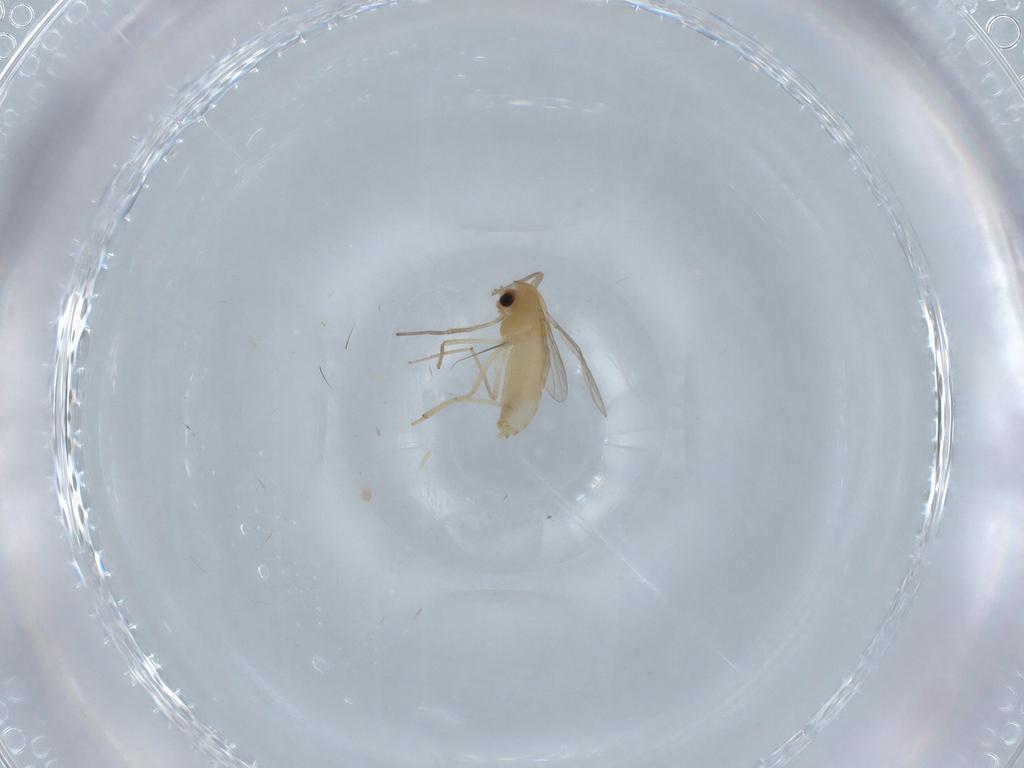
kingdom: Animalia
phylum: Arthropoda
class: Insecta
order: Diptera
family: Chironomidae
